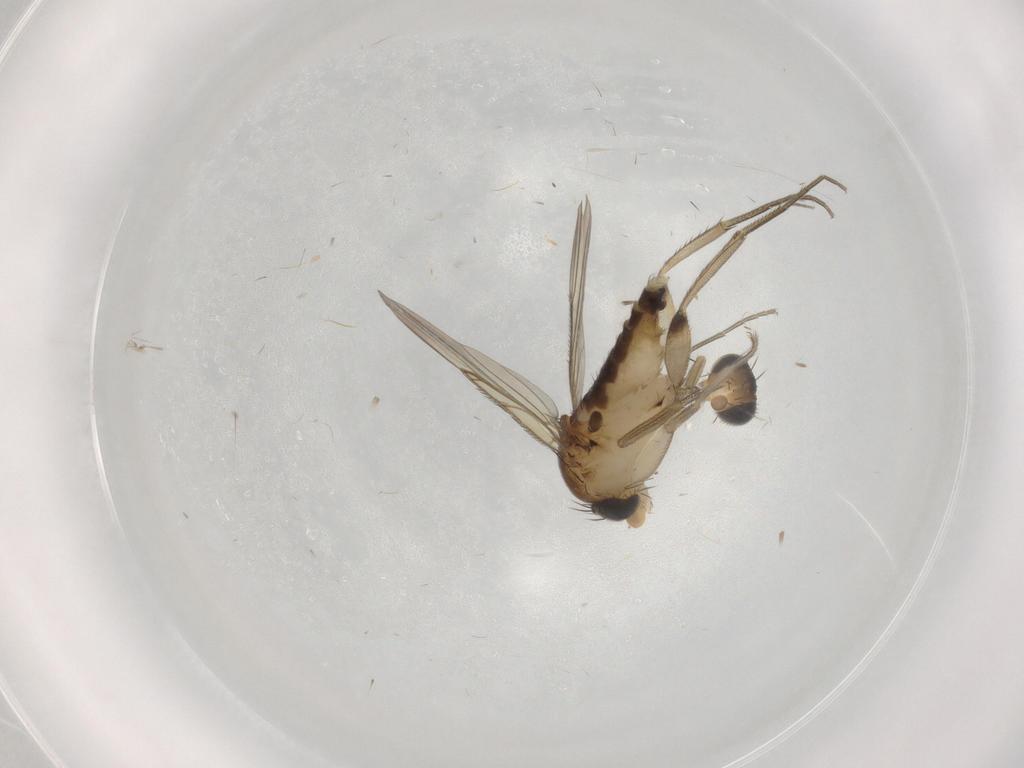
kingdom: Animalia
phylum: Arthropoda
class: Insecta
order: Diptera
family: Phoridae
